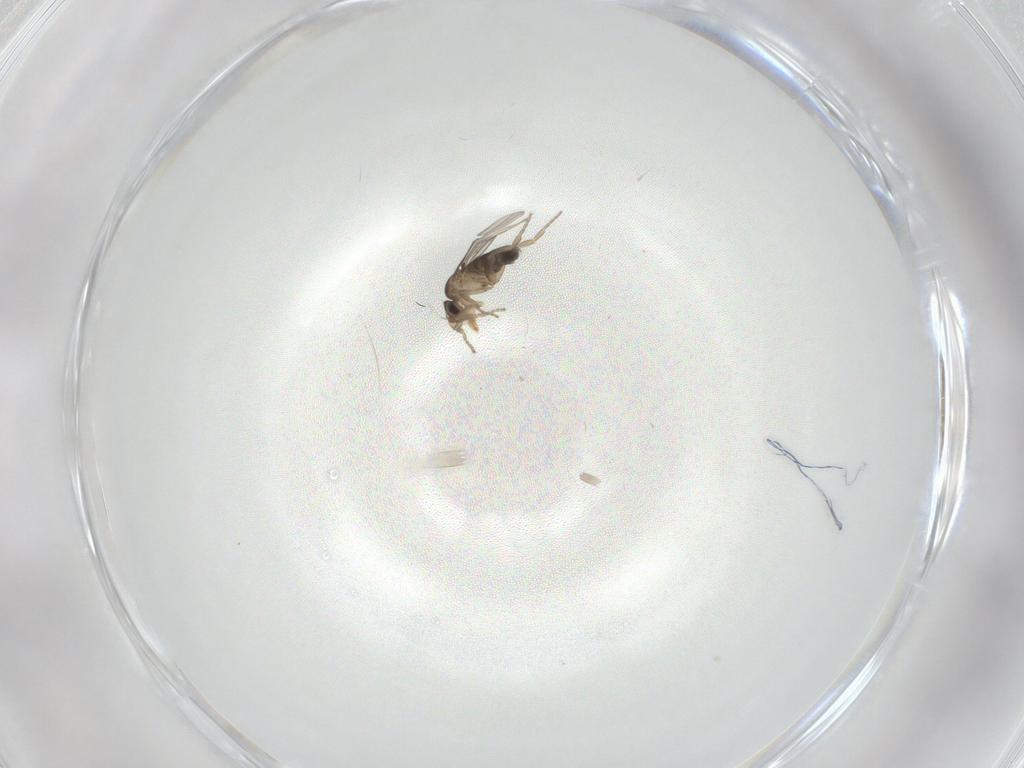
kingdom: Animalia
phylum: Arthropoda
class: Insecta
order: Diptera
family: Cecidomyiidae
